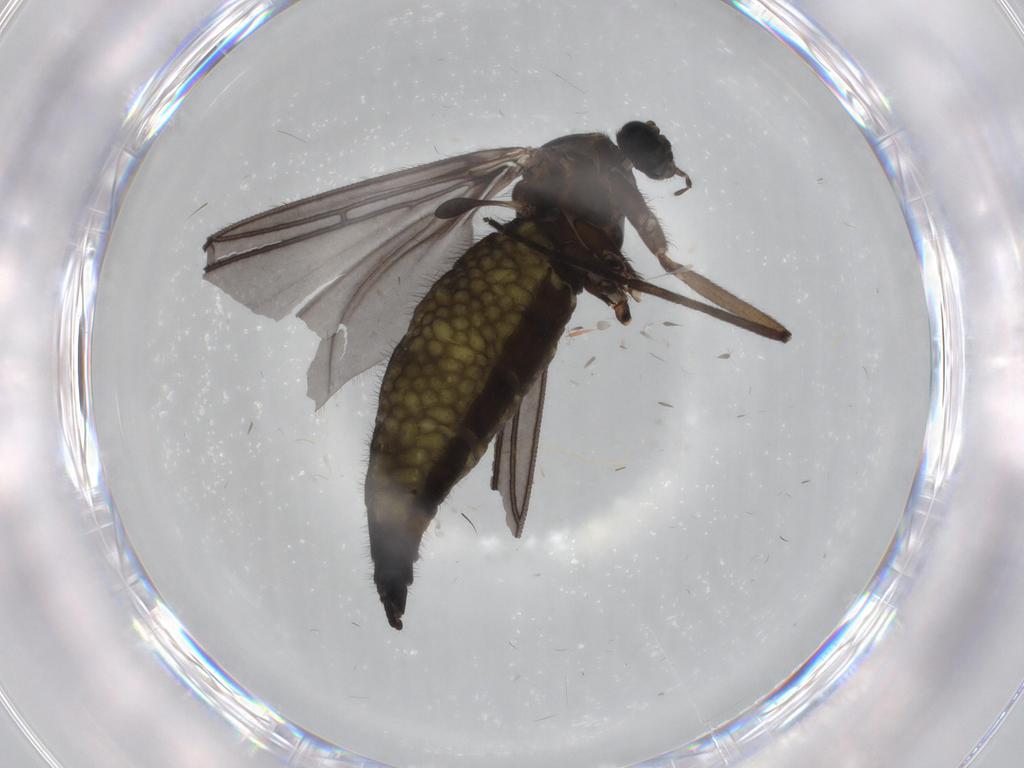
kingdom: Animalia
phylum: Arthropoda
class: Insecta
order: Diptera
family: Sciaridae
